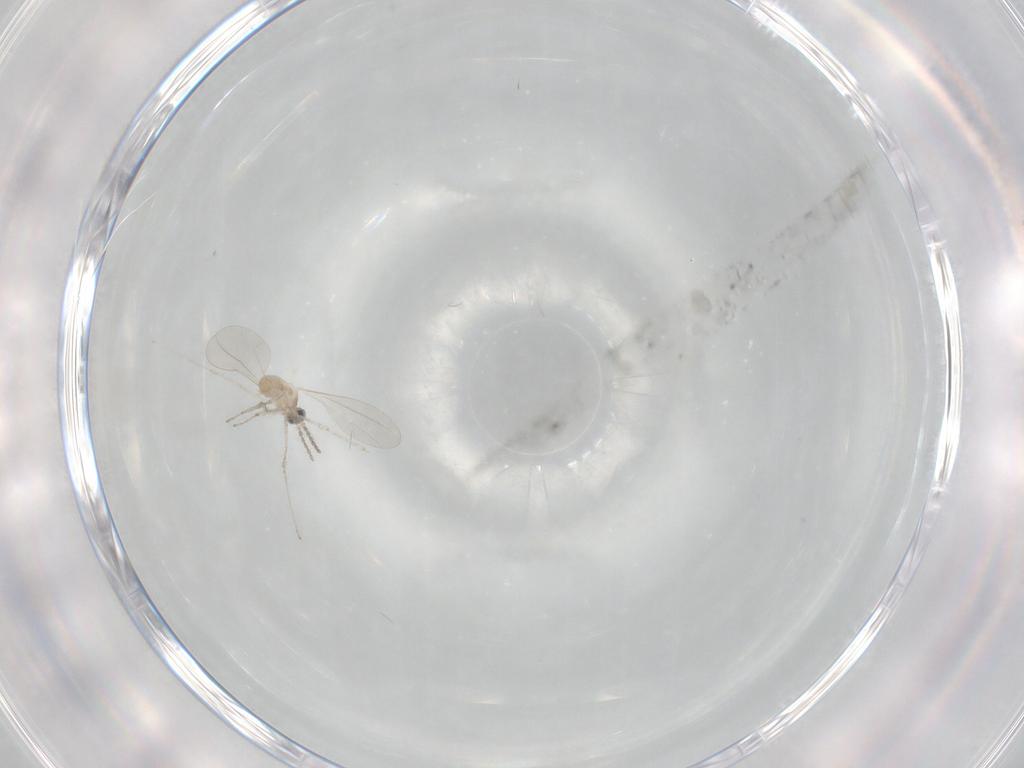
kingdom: Animalia
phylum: Arthropoda
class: Insecta
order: Diptera
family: Cecidomyiidae
